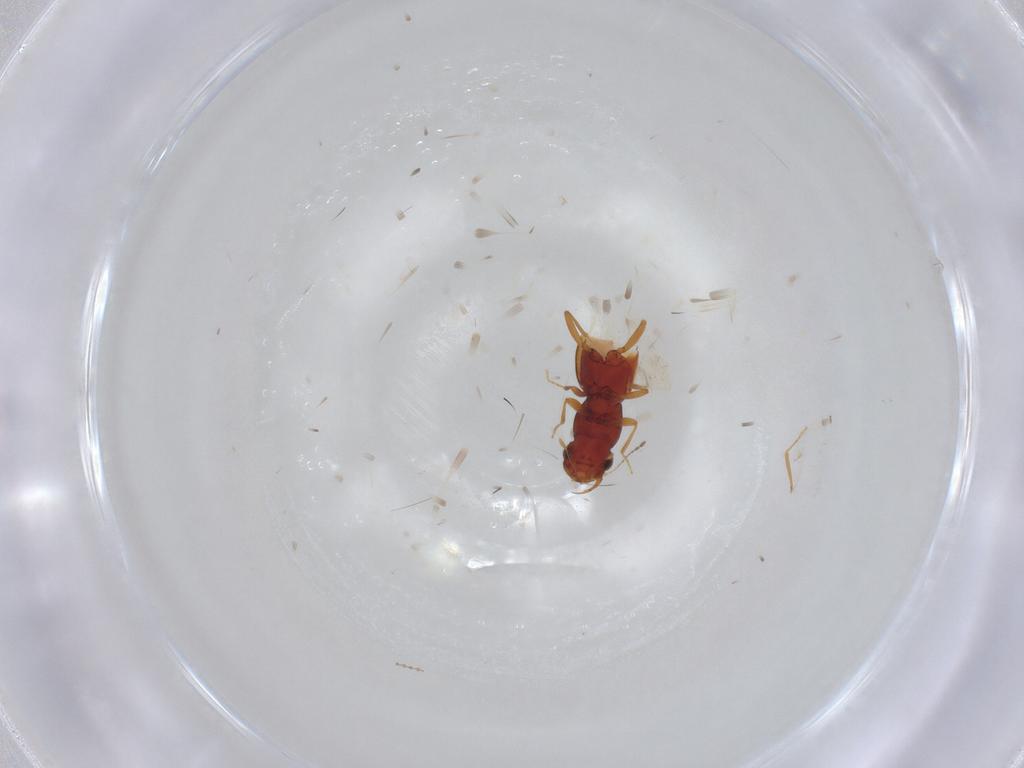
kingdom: Animalia
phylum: Arthropoda
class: Insecta
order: Coleoptera
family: Staphylinidae
